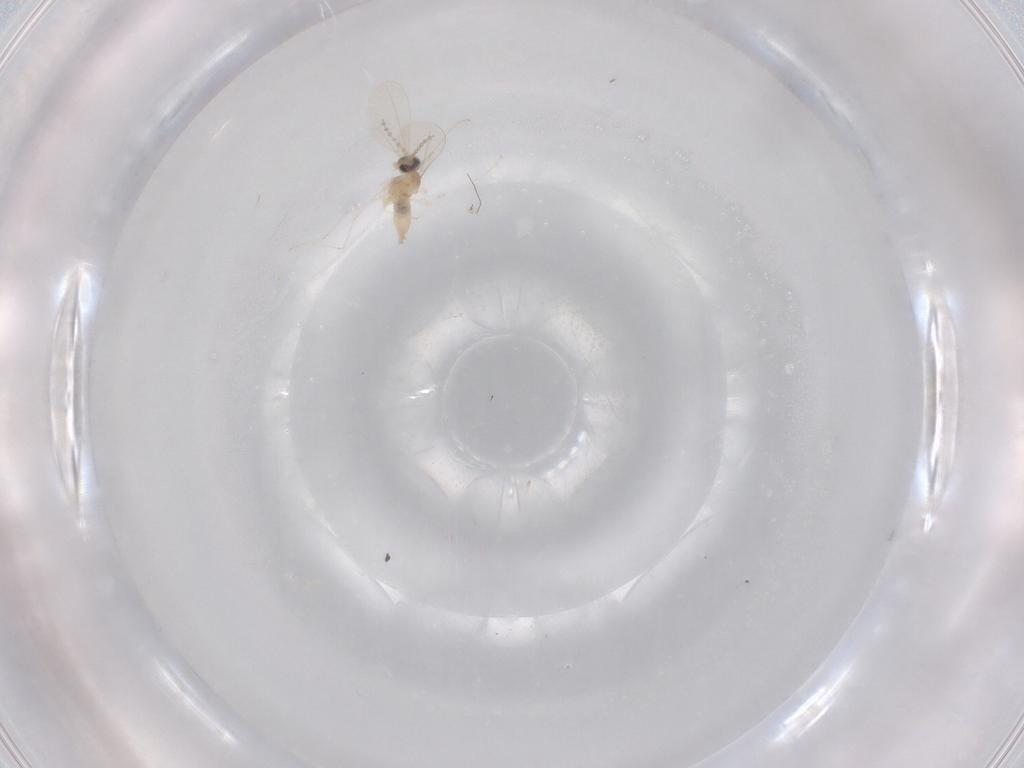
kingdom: Animalia
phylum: Arthropoda
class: Insecta
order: Diptera
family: Cecidomyiidae
